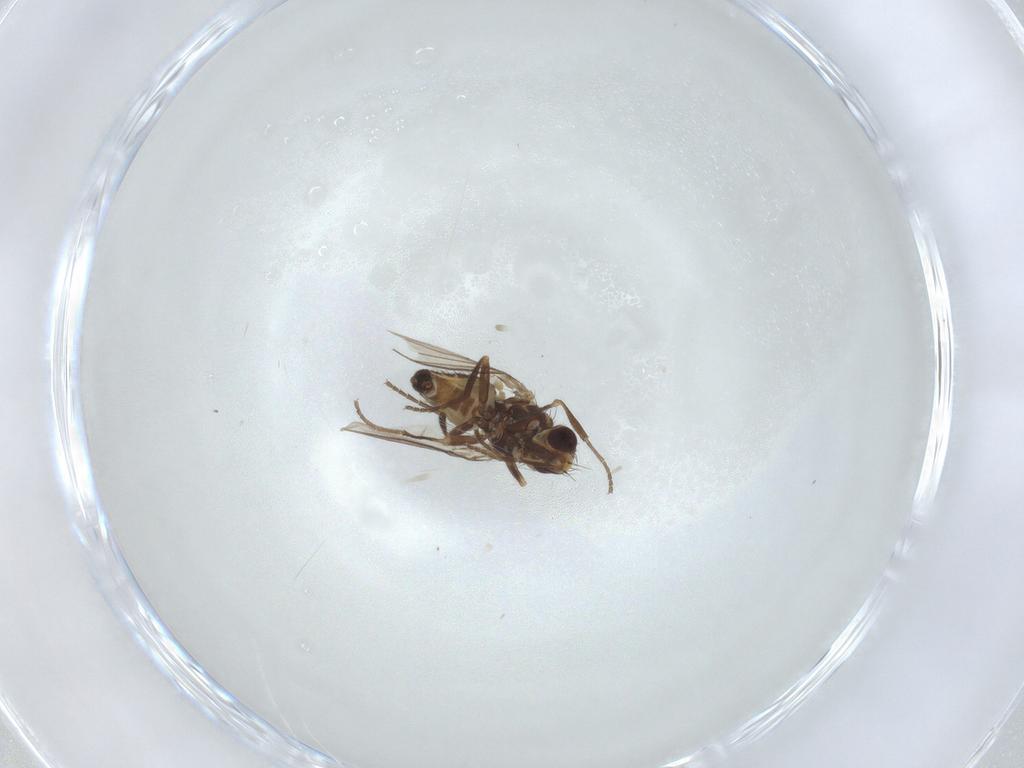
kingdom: Animalia
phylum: Arthropoda
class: Insecta
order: Diptera
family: Agromyzidae
